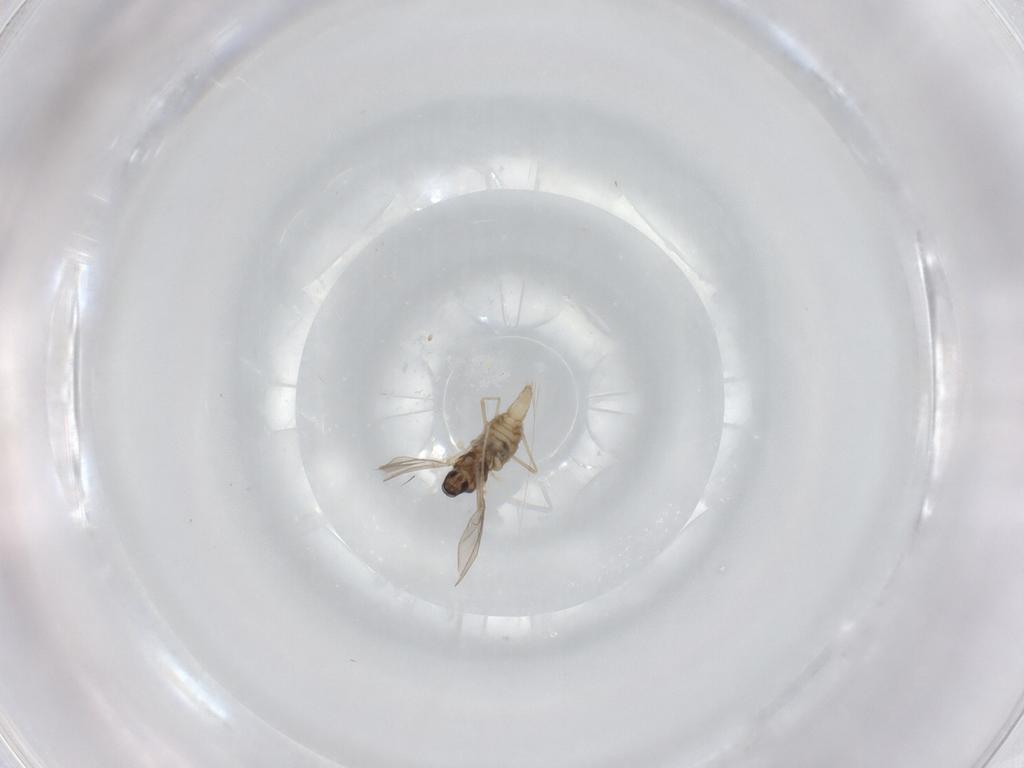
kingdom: Animalia
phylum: Arthropoda
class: Insecta
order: Diptera
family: Cecidomyiidae
